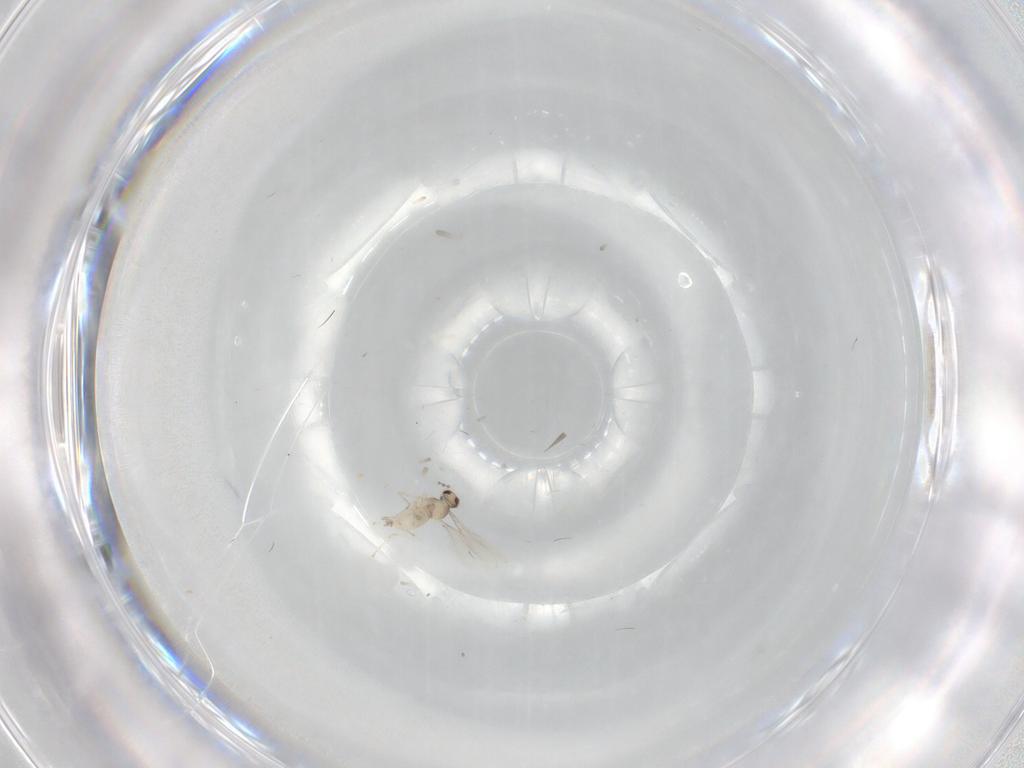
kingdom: Animalia
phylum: Arthropoda
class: Insecta
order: Diptera
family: Cecidomyiidae
